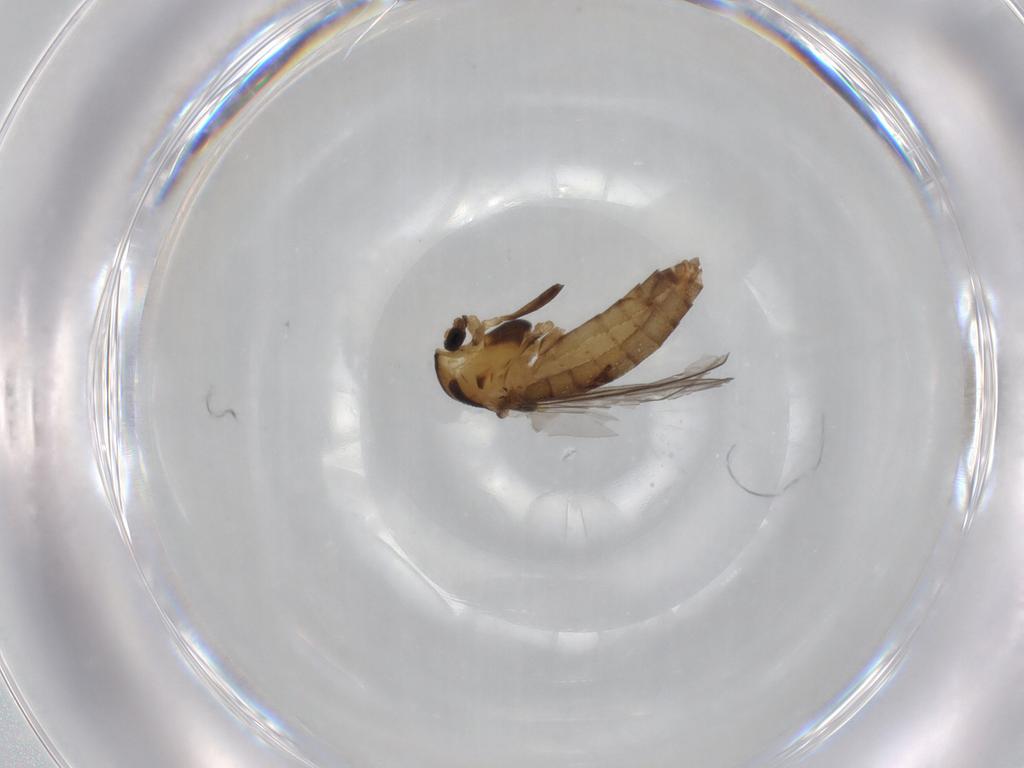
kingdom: Animalia
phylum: Arthropoda
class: Insecta
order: Diptera
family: Chironomidae
